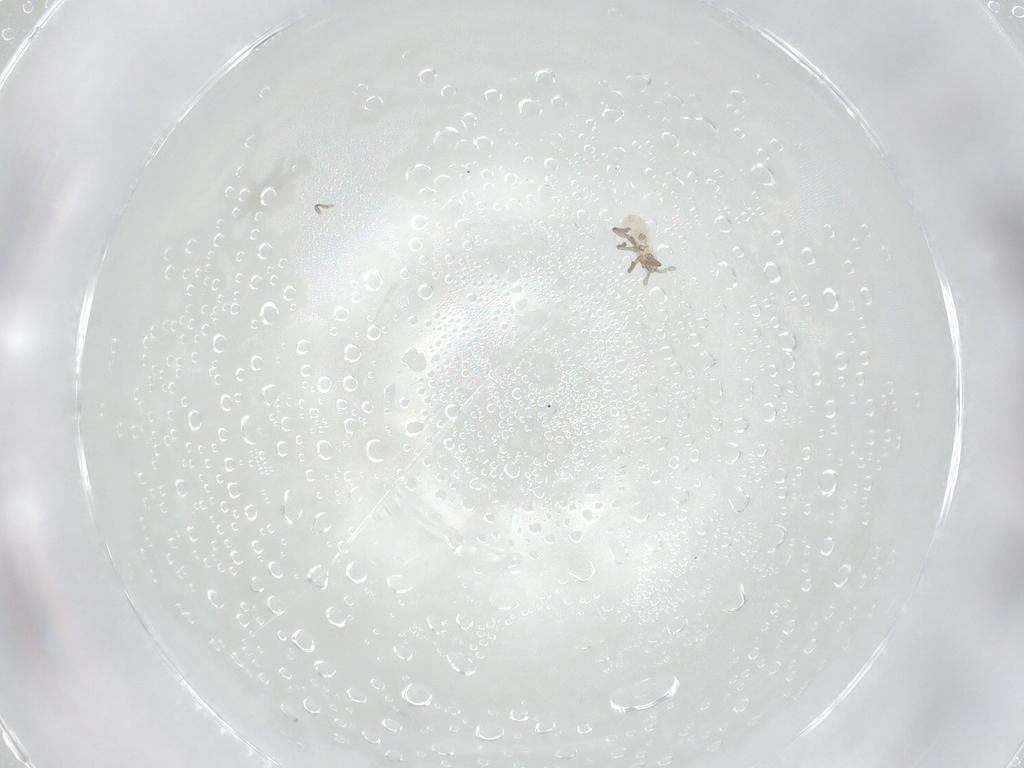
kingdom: Animalia
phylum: Arthropoda
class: Insecta
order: Hemiptera
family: Aphididae
